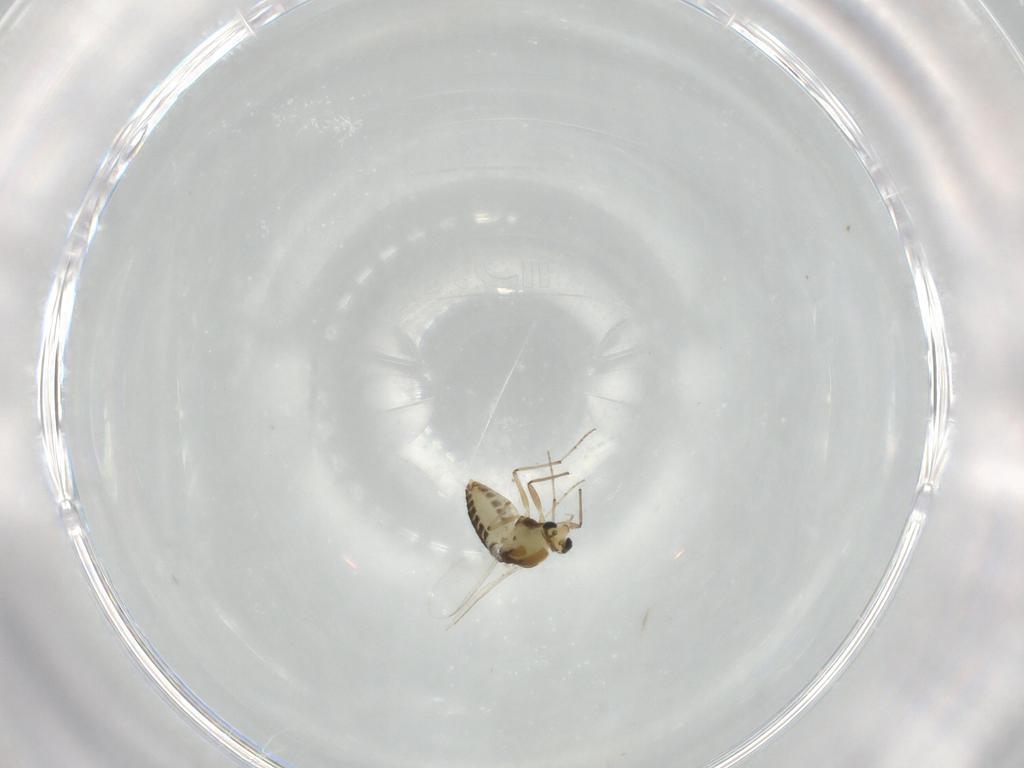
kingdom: Animalia
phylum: Arthropoda
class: Insecta
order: Diptera
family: Chironomidae
